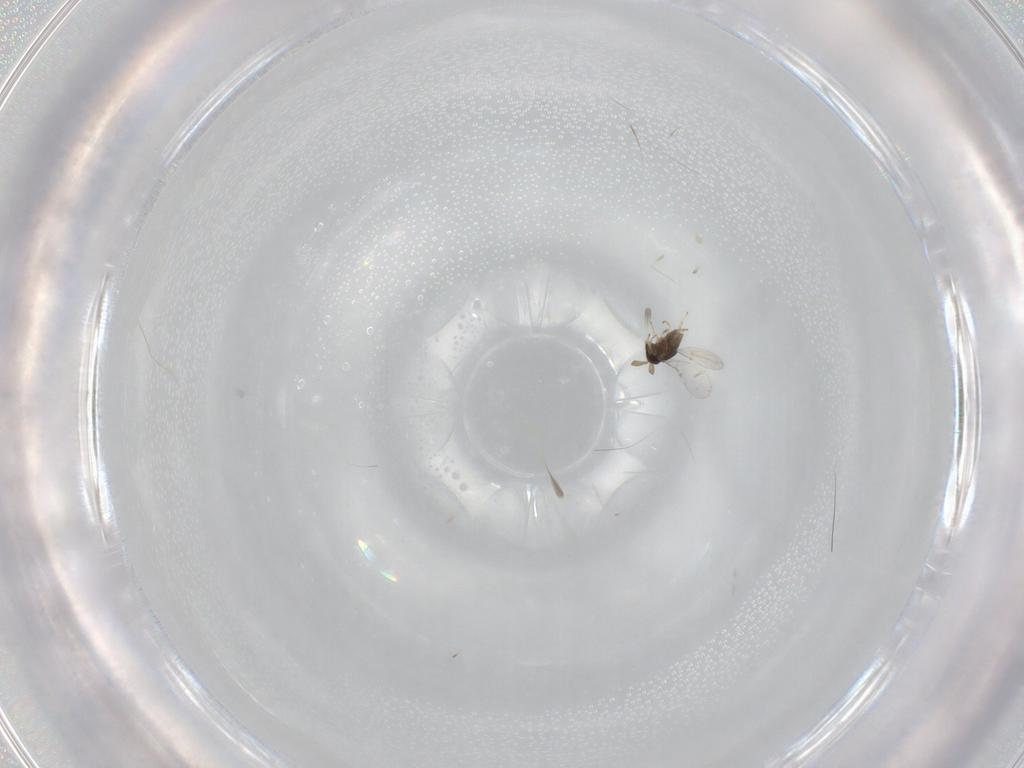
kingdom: Animalia
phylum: Arthropoda
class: Insecta
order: Hymenoptera
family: Encyrtidae
